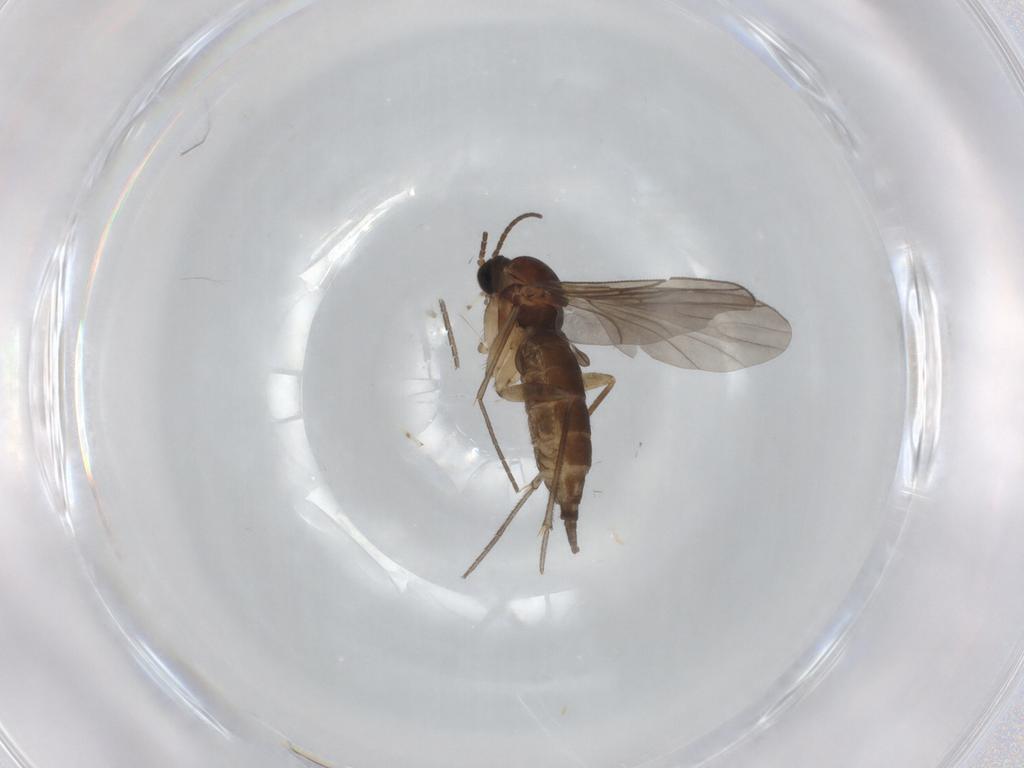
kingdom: Animalia
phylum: Arthropoda
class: Insecta
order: Diptera
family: Sciaridae
